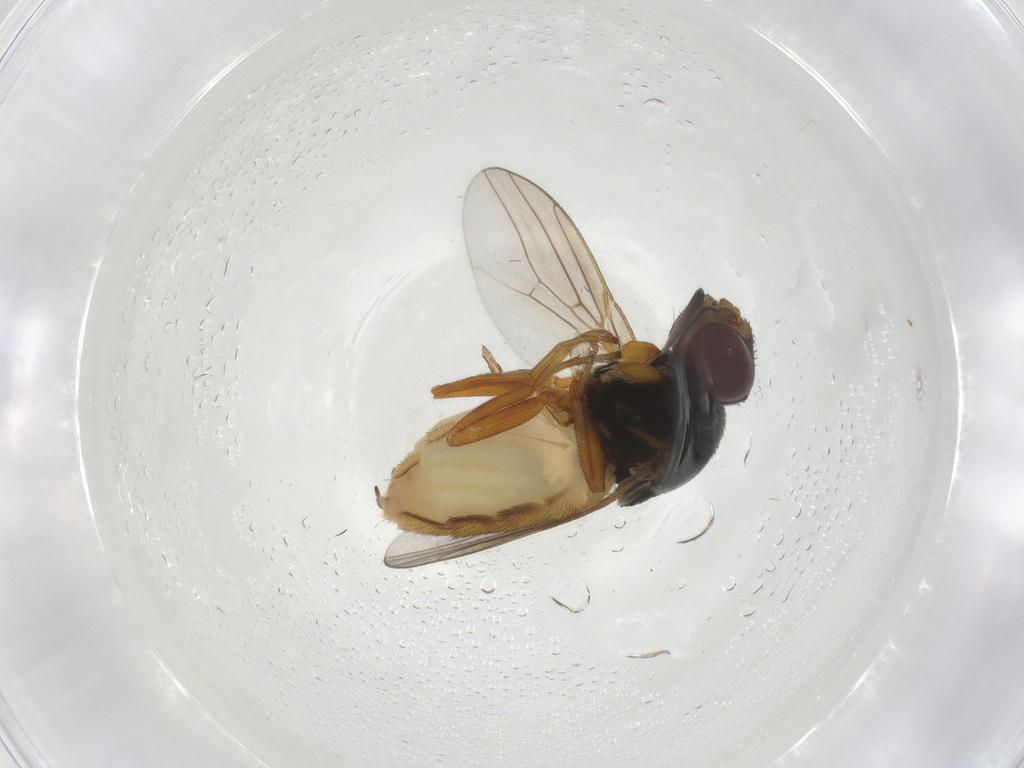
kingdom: Animalia
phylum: Arthropoda
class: Insecta
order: Diptera
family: Chloropidae
